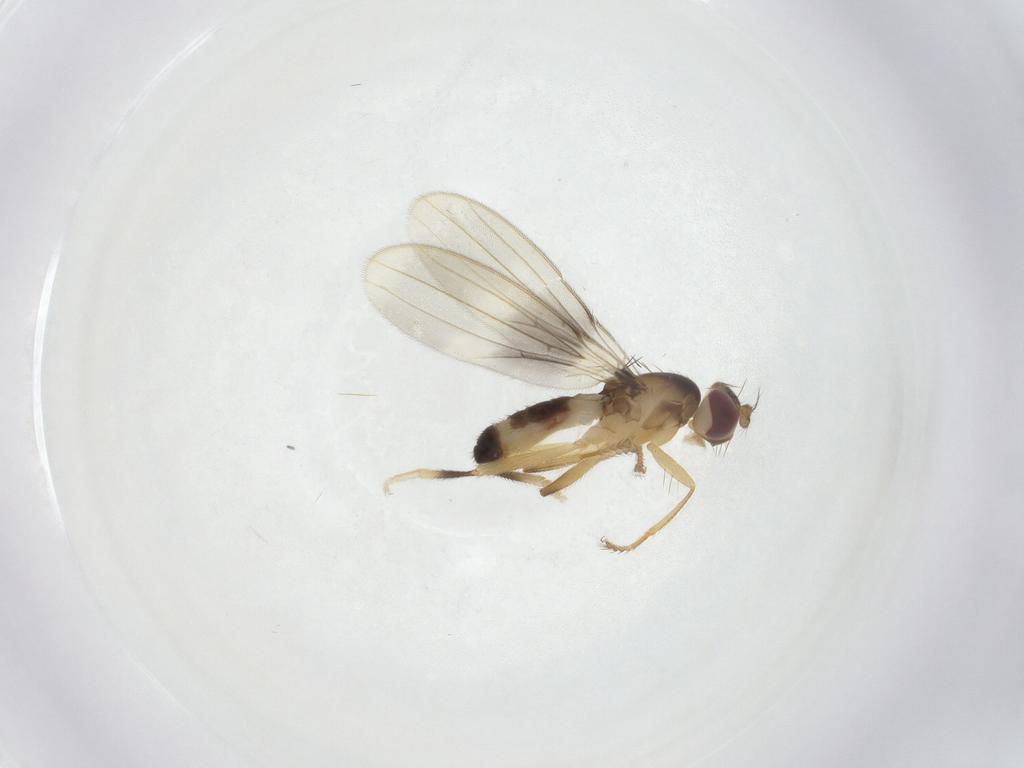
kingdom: Animalia
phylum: Arthropoda
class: Insecta
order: Diptera
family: Periscelididae
